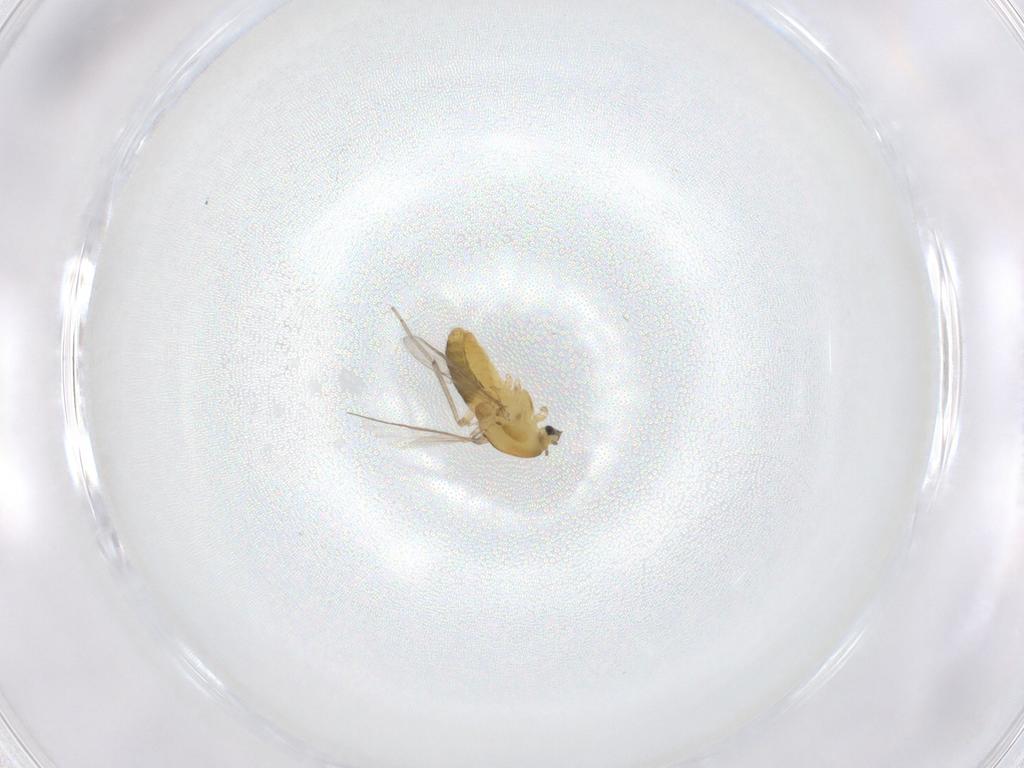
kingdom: Animalia
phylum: Arthropoda
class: Insecta
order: Diptera
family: Chironomidae
